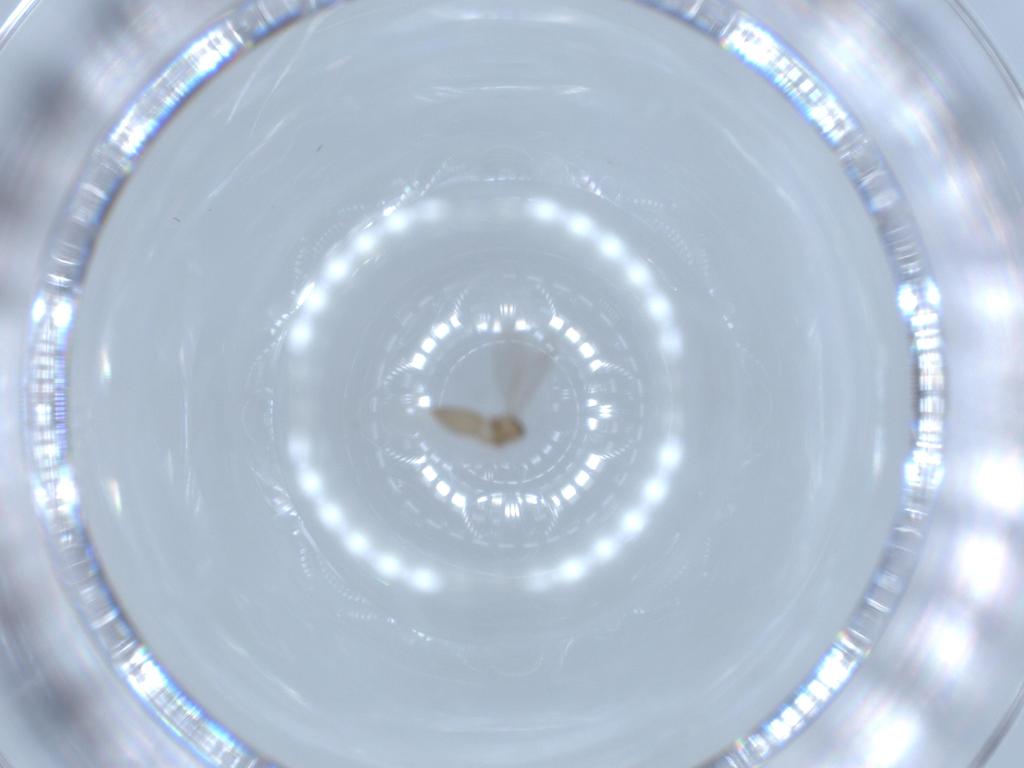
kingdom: Animalia
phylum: Arthropoda
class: Insecta
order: Diptera
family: Cecidomyiidae
